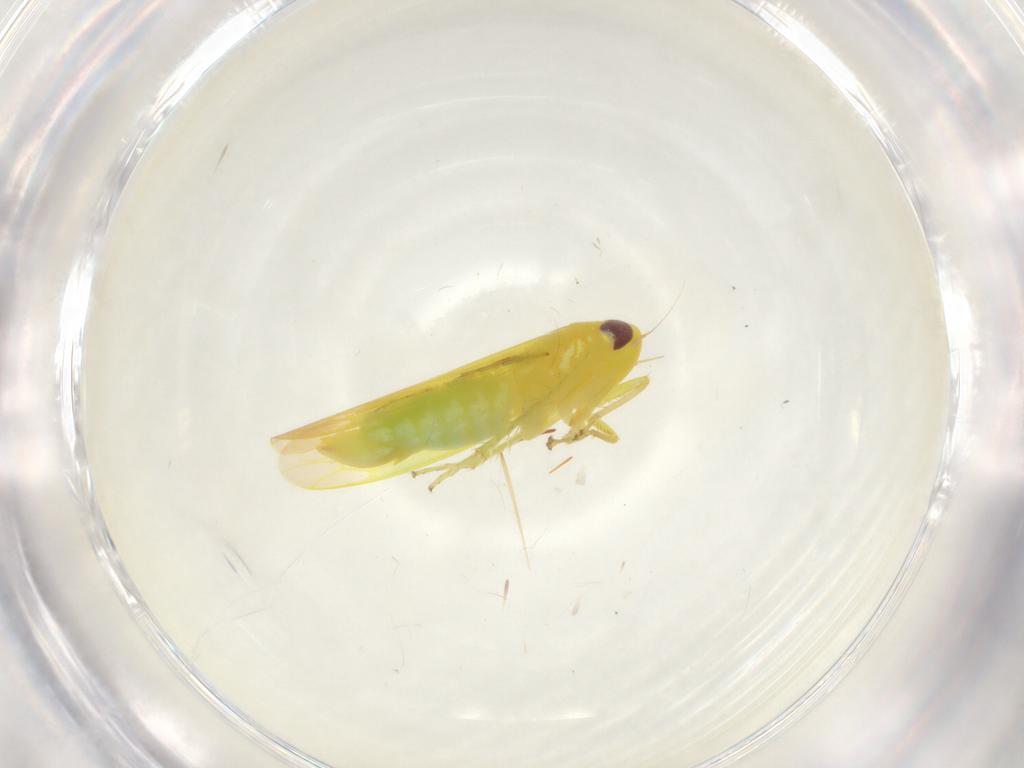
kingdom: Animalia
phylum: Arthropoda
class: Insecta
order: Hemiptera
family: Cicadellidae
